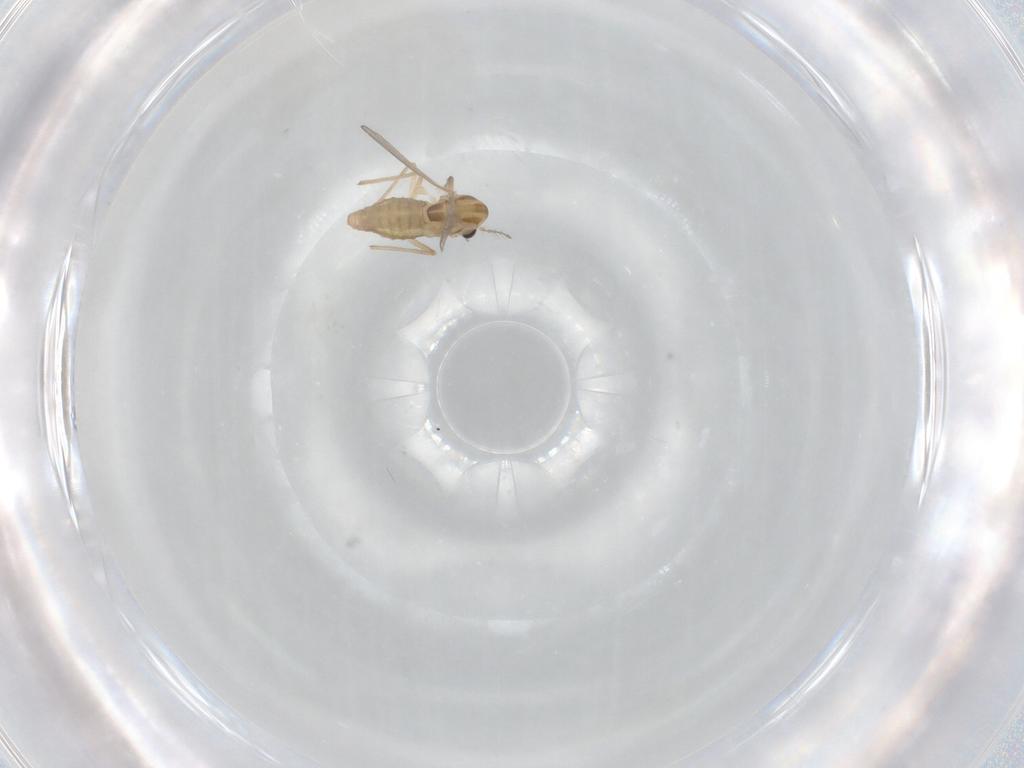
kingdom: Animalia
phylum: Arthropoda
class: Insecta
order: Diptera
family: Chironomidae
